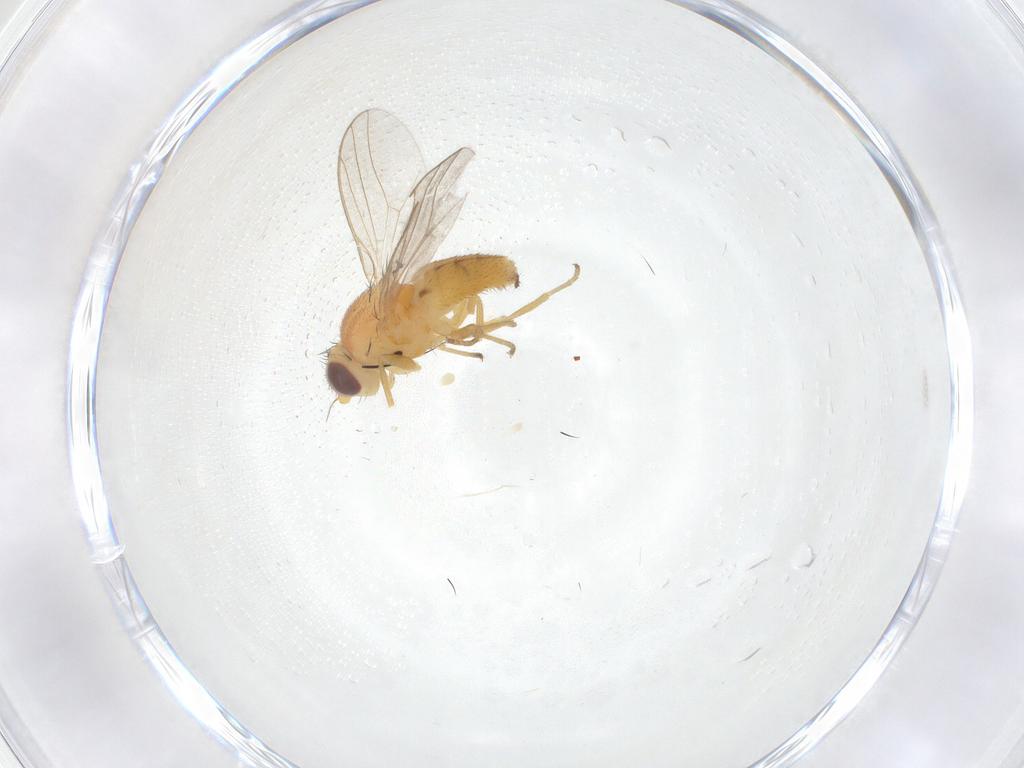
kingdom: Animalia
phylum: Arthropoda
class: Insecta
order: Diptera
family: Chloropidae
